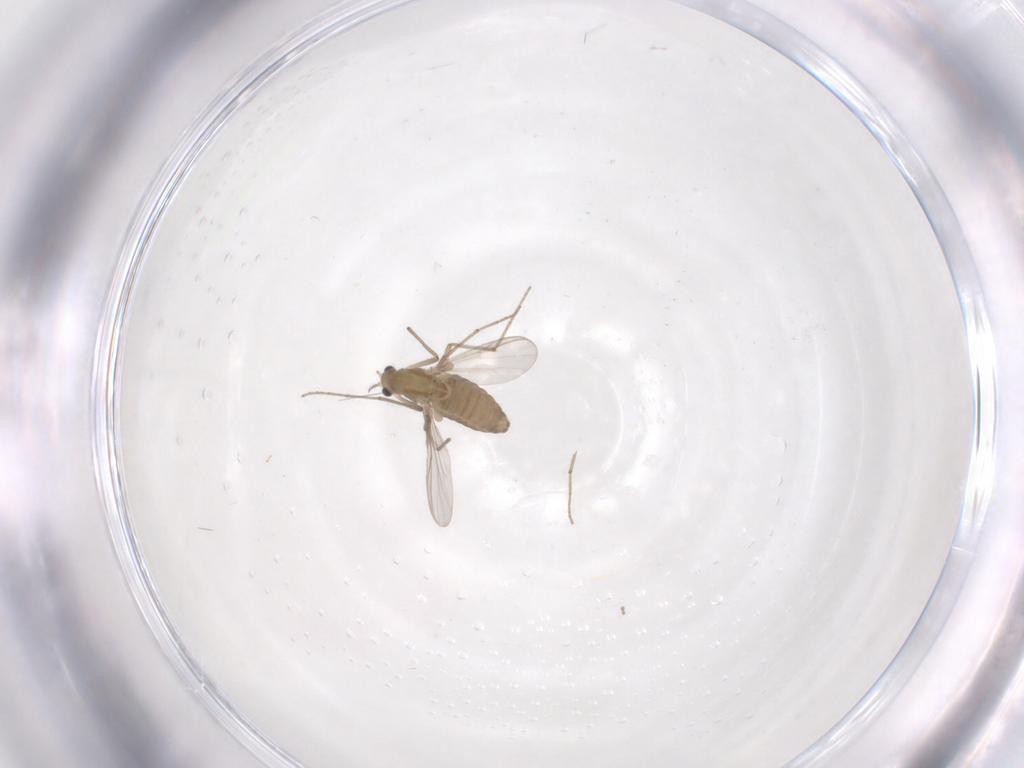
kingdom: Animalia
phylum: Arthropoda
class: Insecta
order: Diptera
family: Chironomidae
